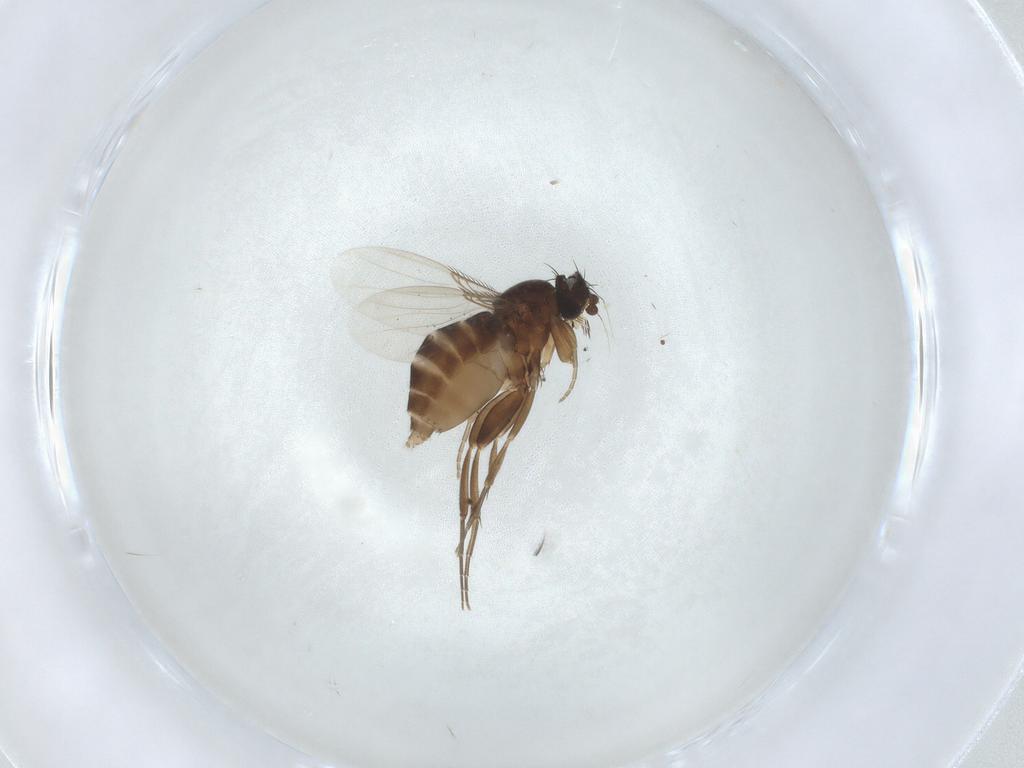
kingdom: Animalia
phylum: Arthropoda
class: Insecta
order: Diptera
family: Phoridae
